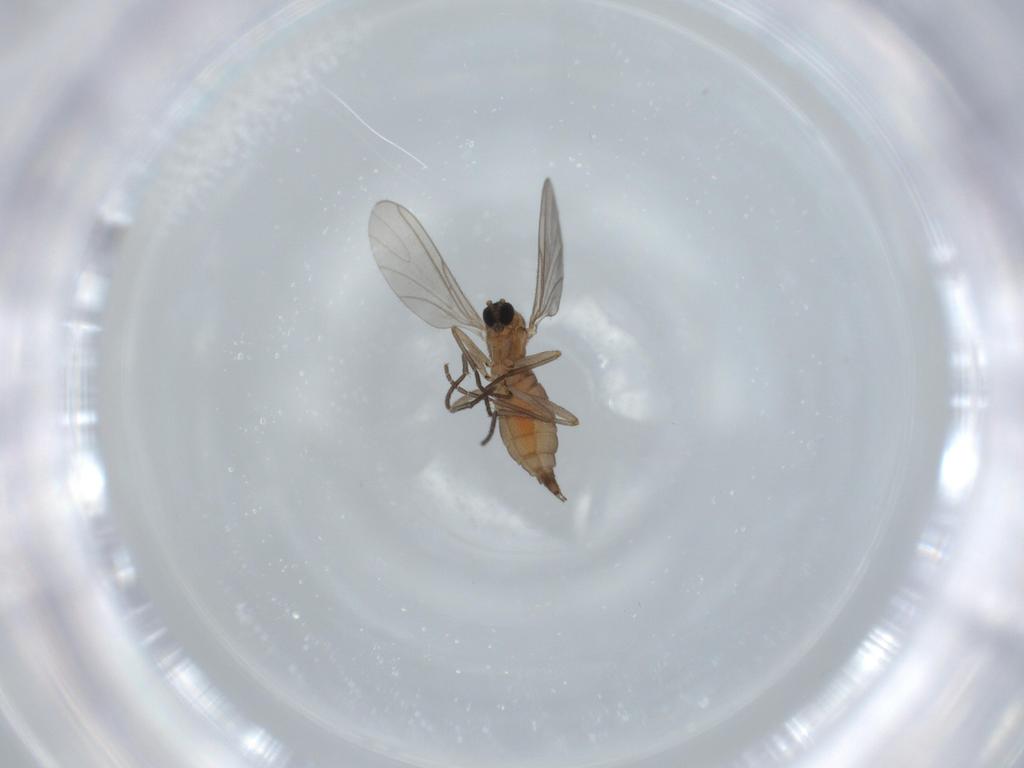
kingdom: Animalia
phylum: Arthropoda
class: Insecta
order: Diptera
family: Sciaridae
